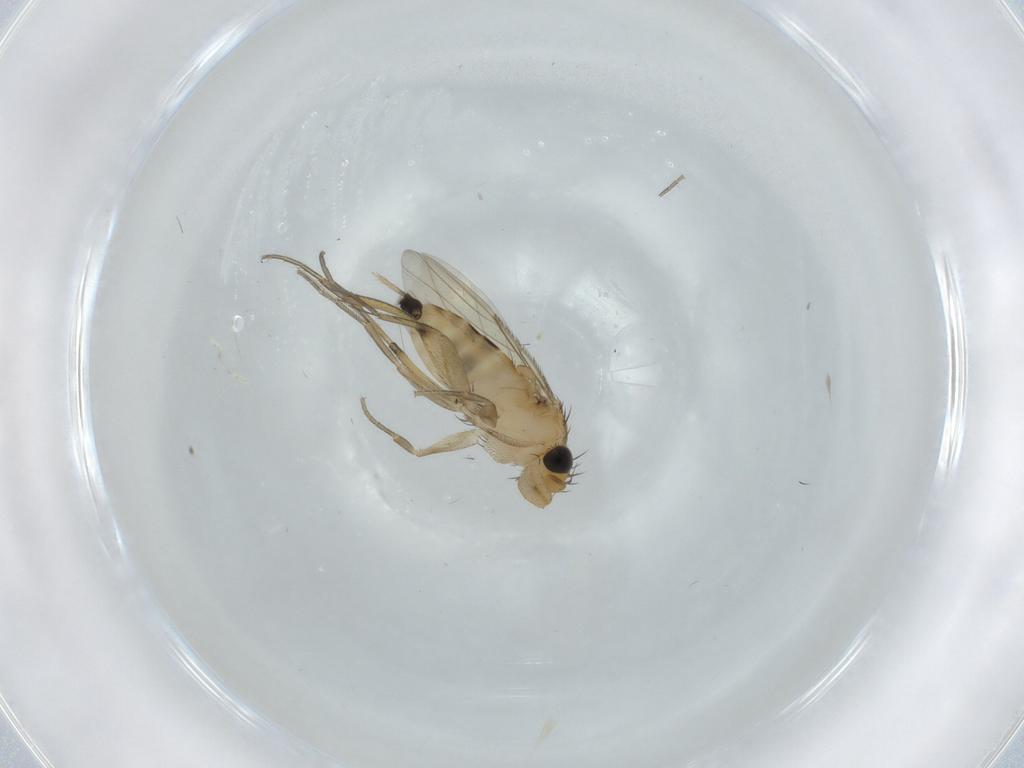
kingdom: Animalia
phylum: Arthropoda
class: Insecta
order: Diptera
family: Phoridae
